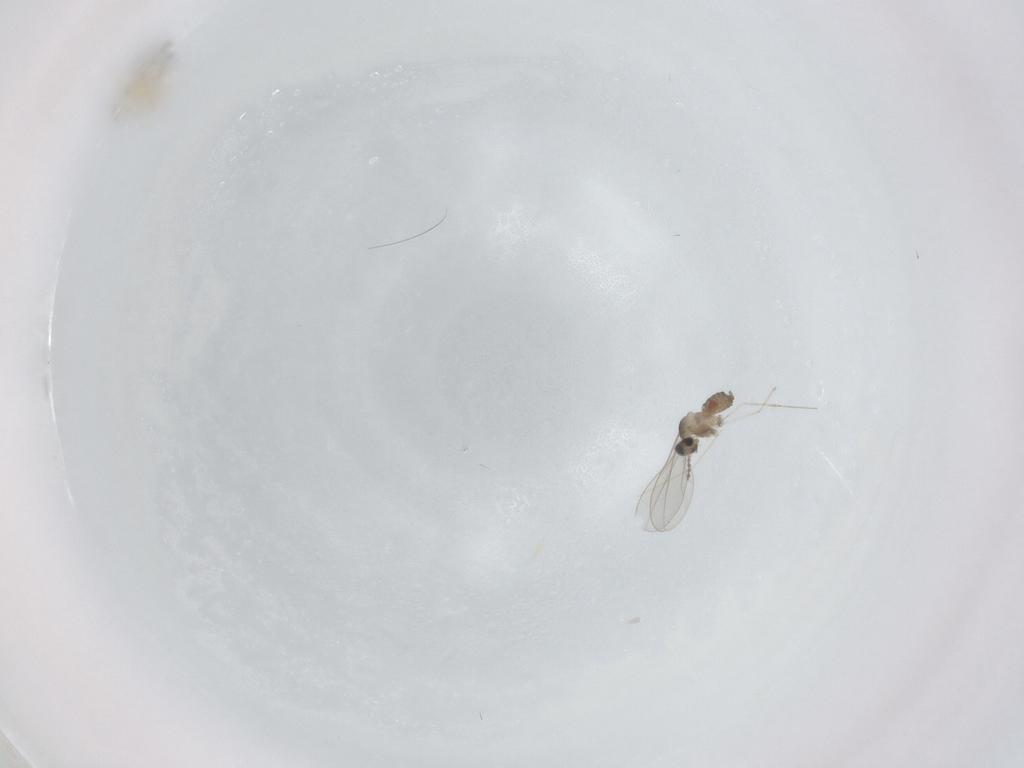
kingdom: Animalia
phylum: Arthropoda
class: Insecta
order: Diptera
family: Cecidomyiidae
